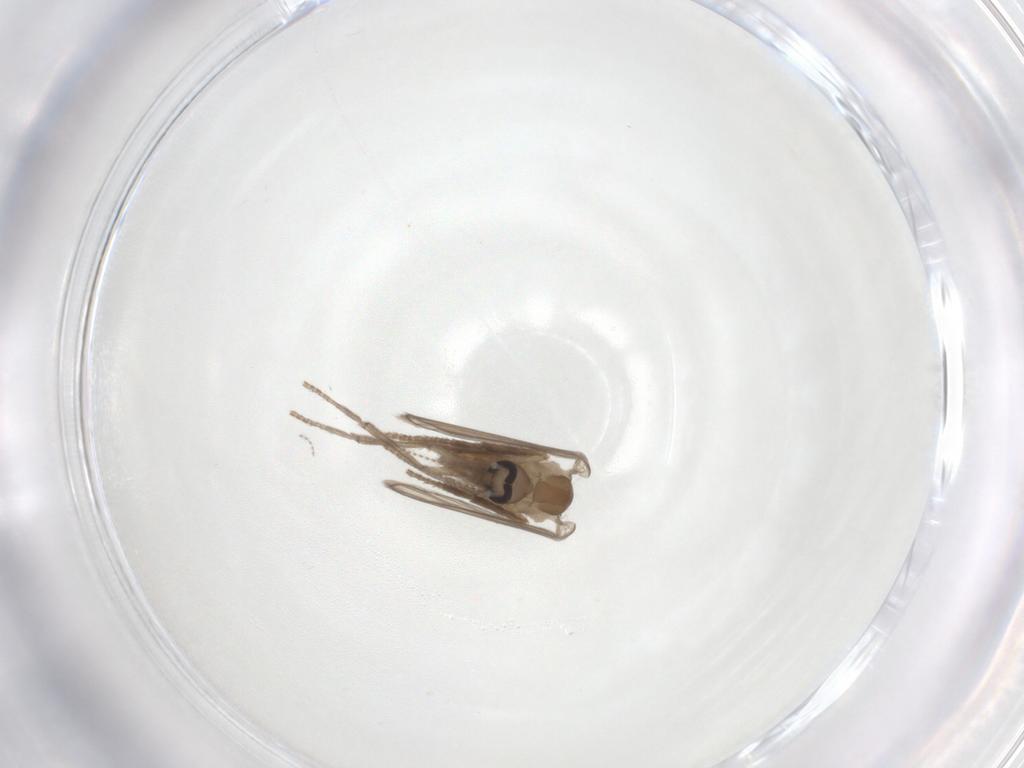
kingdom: Animalia
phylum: Arthropoda
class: Insecta
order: Diptera
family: Psychodidae
